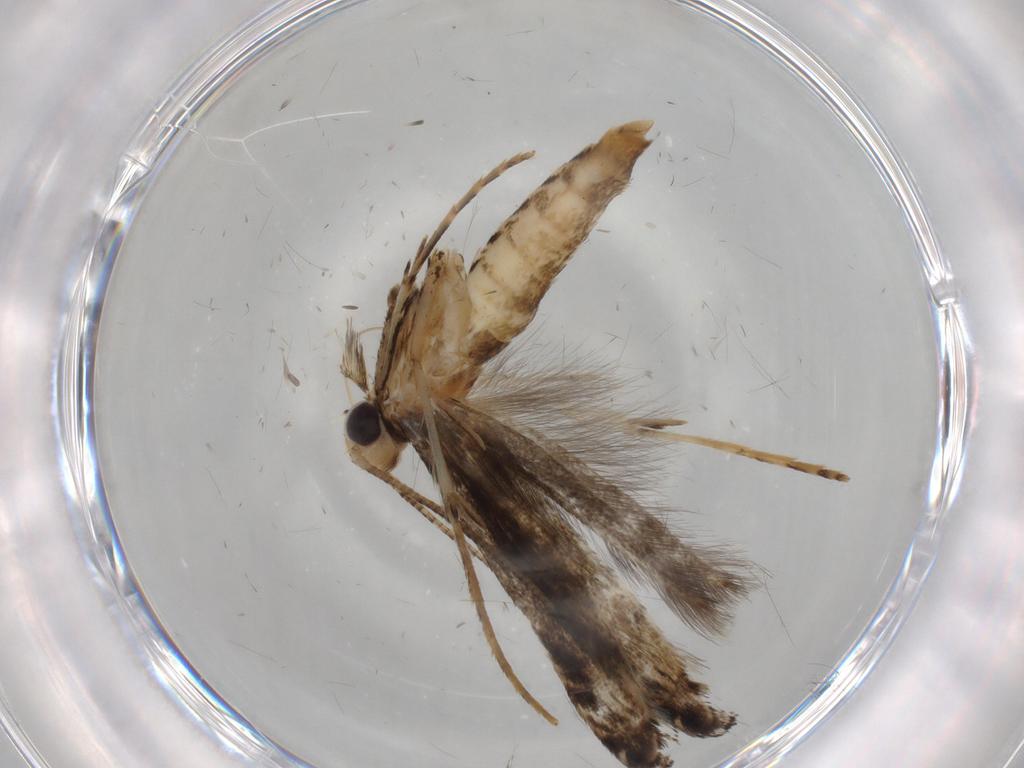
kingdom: Animalia
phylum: Arthropoda
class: Insecta
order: Lepidoptera
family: Gracillariidae
